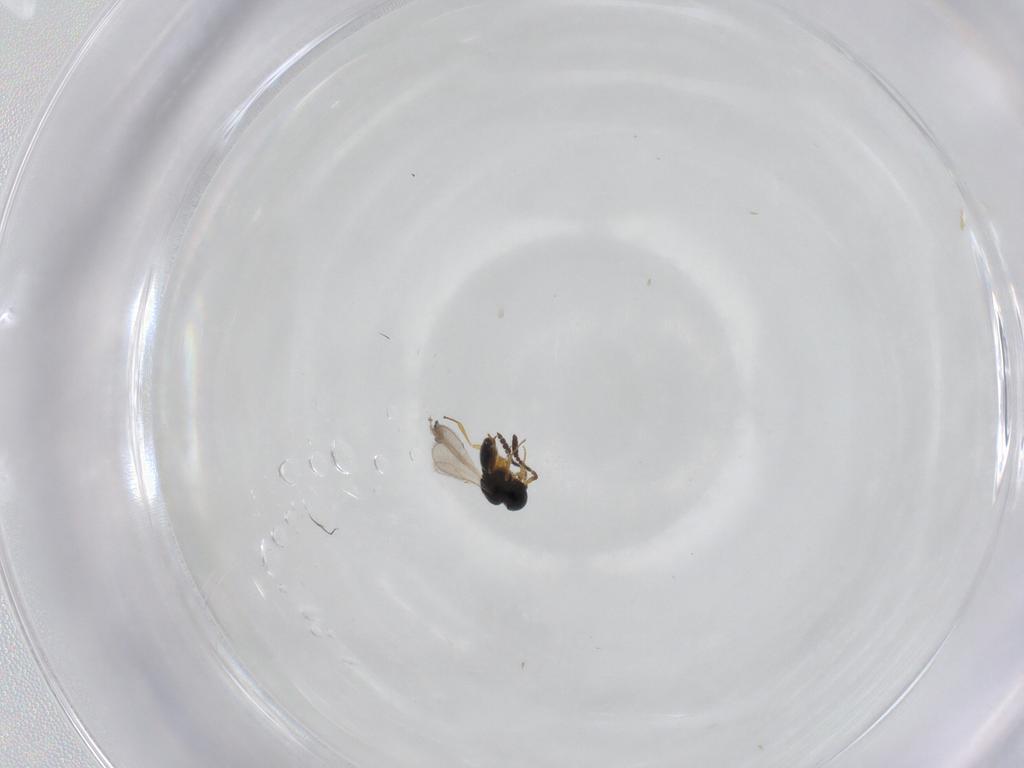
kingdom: Animalia
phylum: Arthropoda
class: Insecta
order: Hymenoptera
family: Scelionidae
